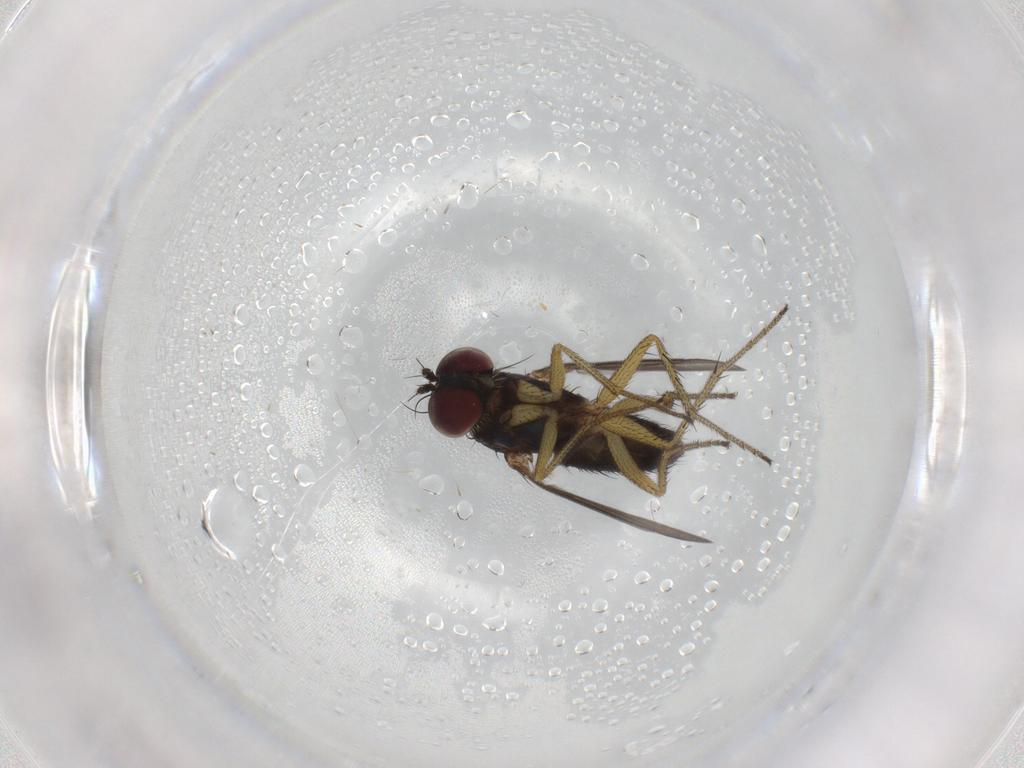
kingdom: Animalia
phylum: Arthropoda
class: Insecta
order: Diptera
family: Dolichopodidae
